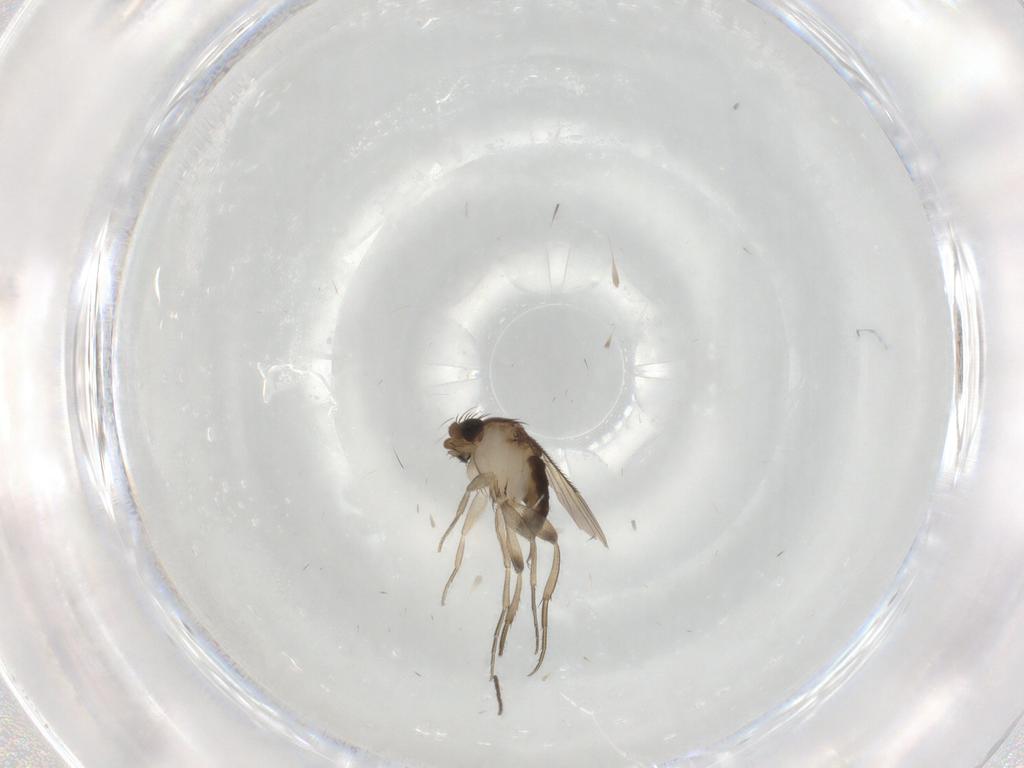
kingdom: Animalia
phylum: Arthropoda
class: Insecta
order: Diptera
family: Phoridae
